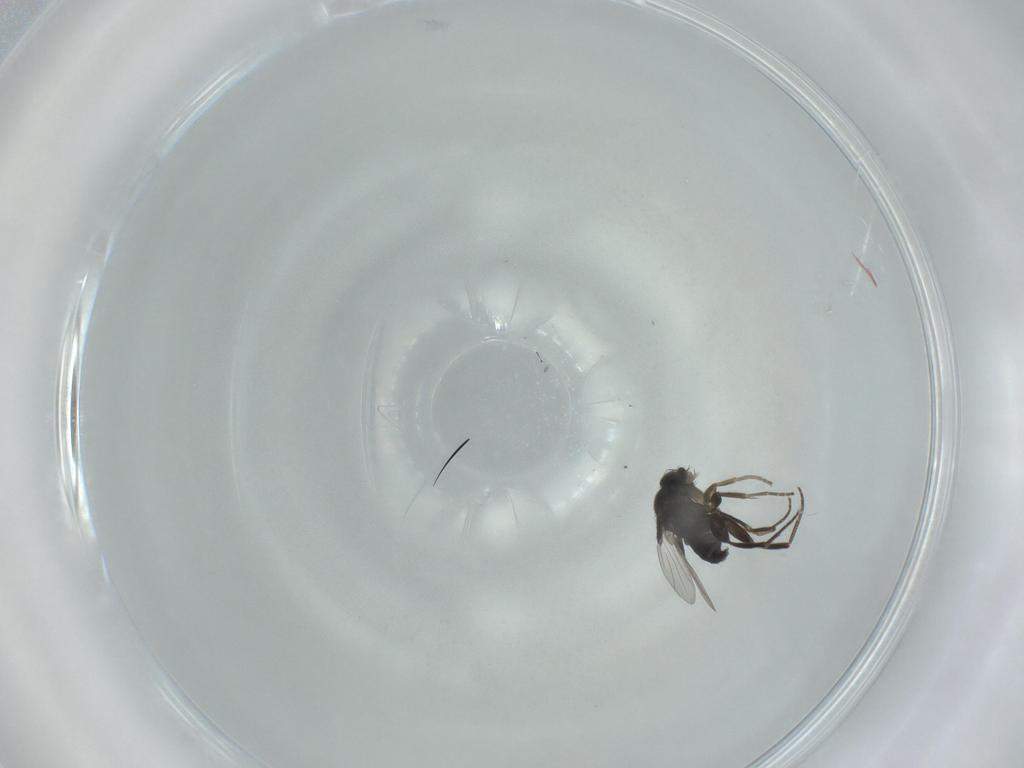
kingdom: Animalia
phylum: Arthropoda
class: Insecta
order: Diptera
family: Phoridae
